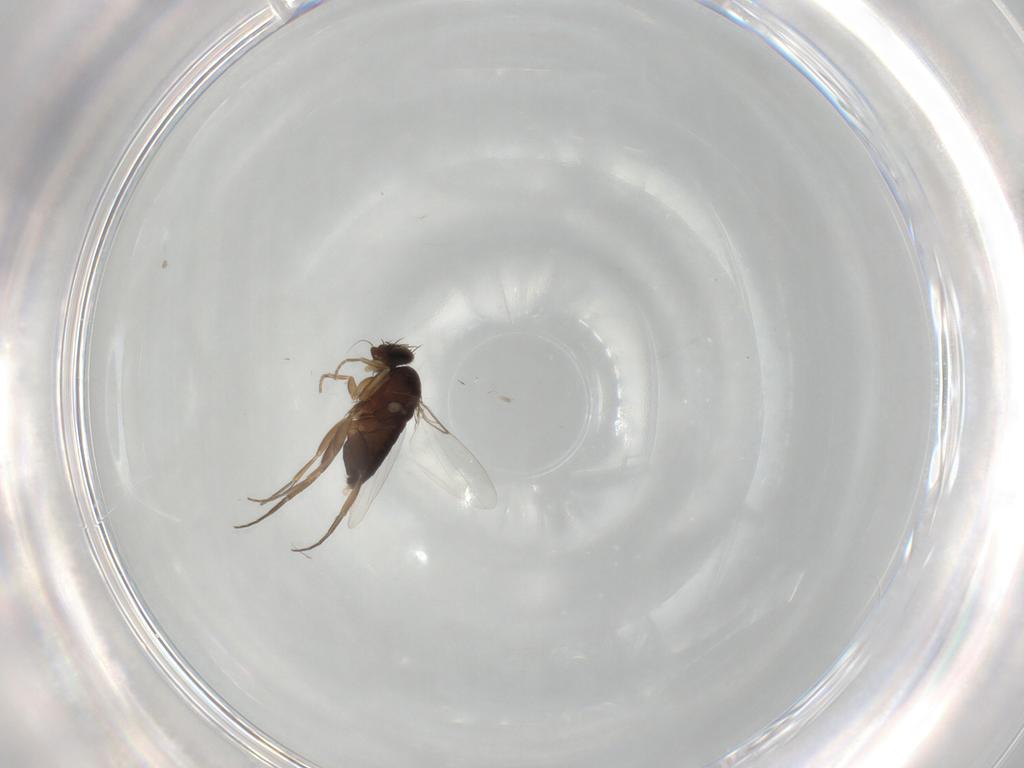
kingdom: Animalia
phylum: Arthropoda
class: Insecta
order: Diptera
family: Phoridae
